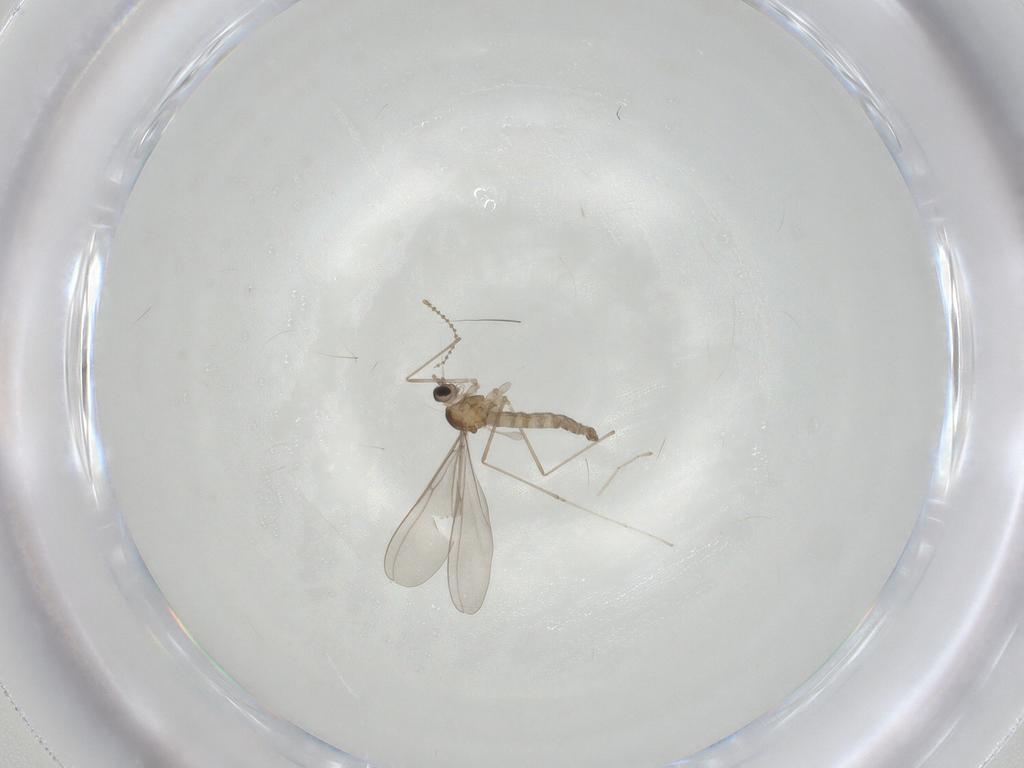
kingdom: Animalia
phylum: Arthropoda
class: Insecta
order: Diptera
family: Cecidomyiidae
